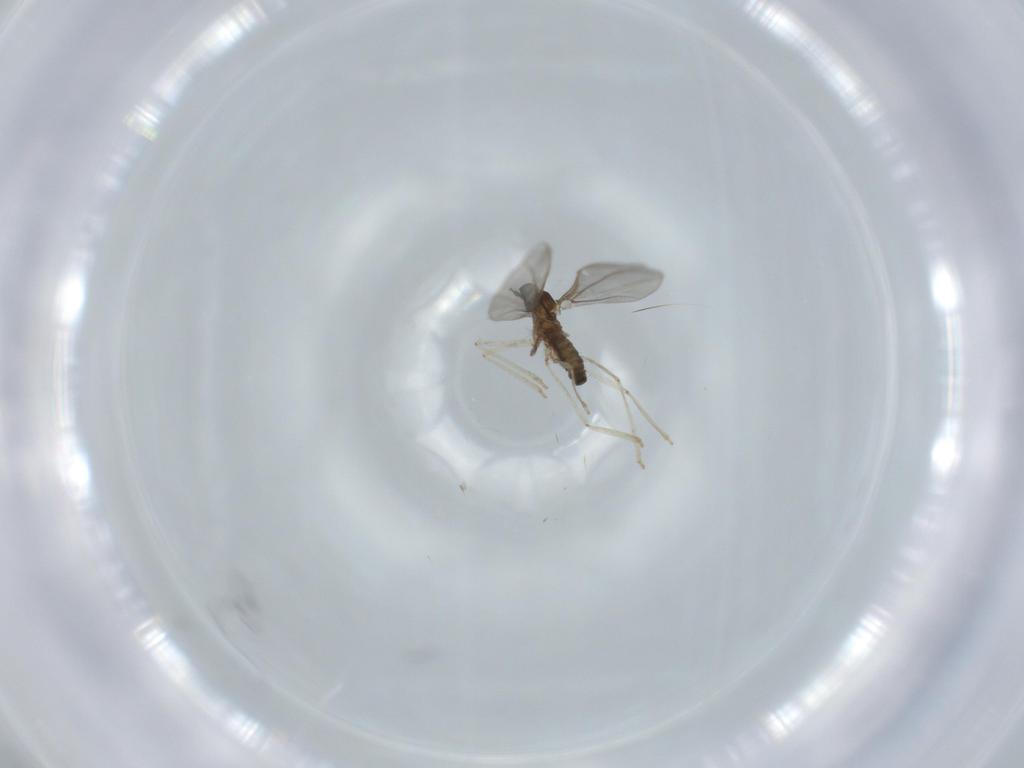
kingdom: Animalia
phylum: Arthropoda
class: Insecta
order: Diptera
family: Cecidomyiidae
